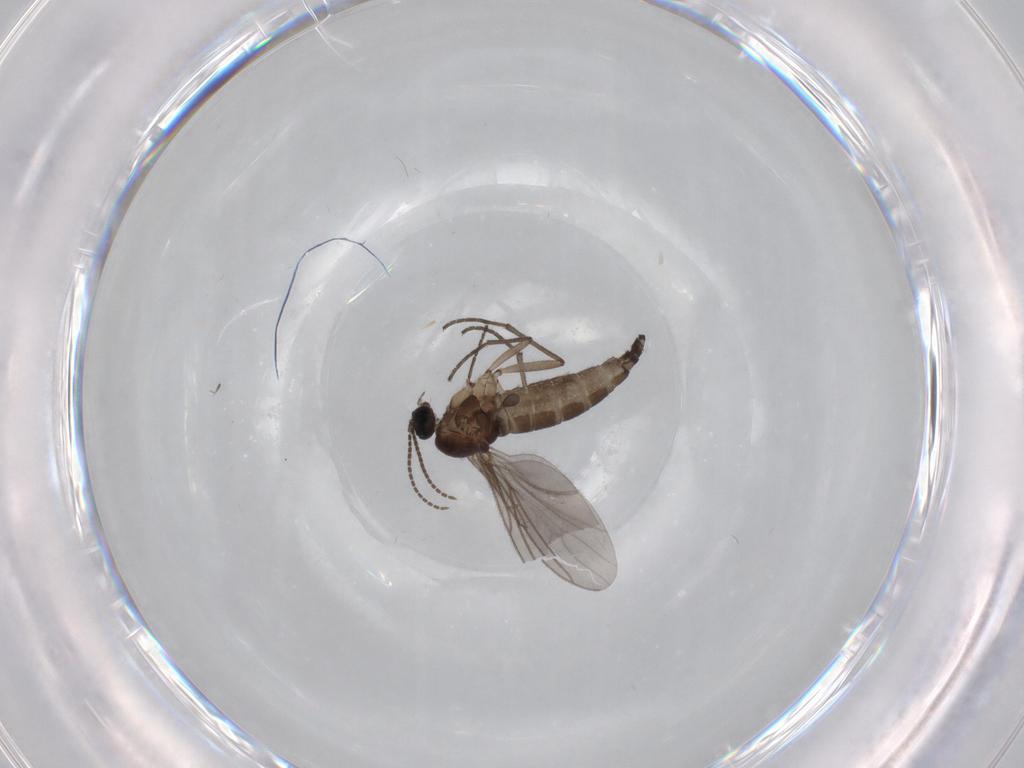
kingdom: Animalia
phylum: Arthropoda
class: Insecta
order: Diptera
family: Sciaridae
